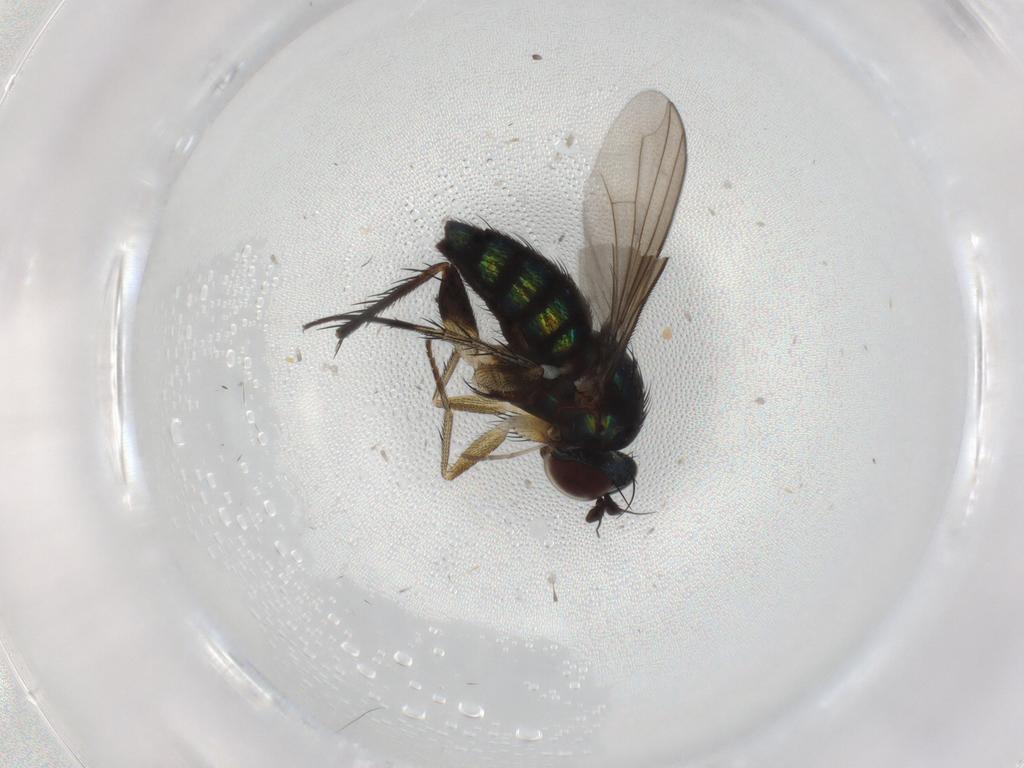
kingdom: Animalia
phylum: Arthropoda
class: Insecta
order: Diptera
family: Dolichopodidae
